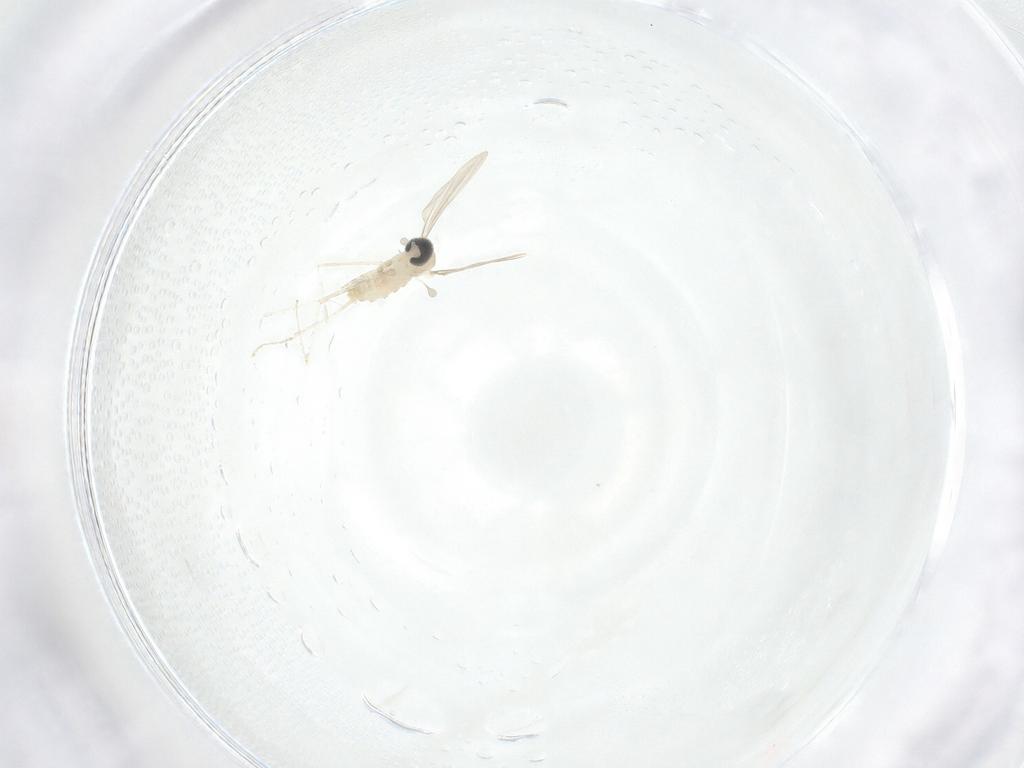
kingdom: Animalia
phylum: Arthropoda
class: Insecta
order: Diptera
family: Cecidomyiidae
